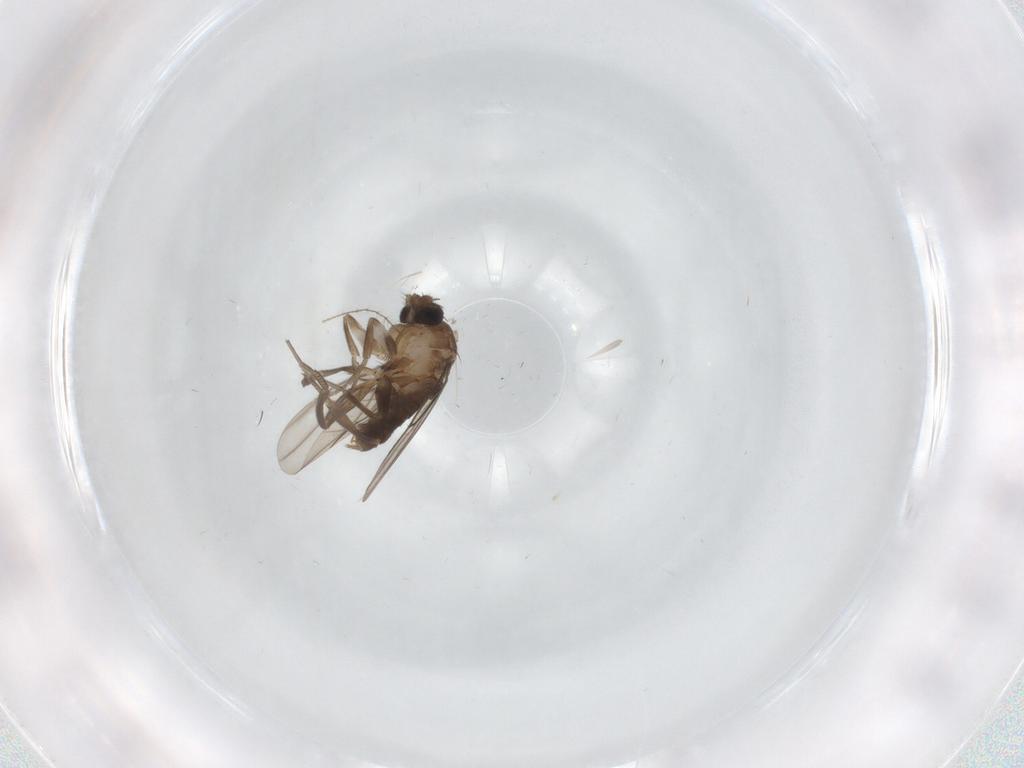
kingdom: Animalia
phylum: Arthropoda
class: Insecta
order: Diptera
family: Phoridae
